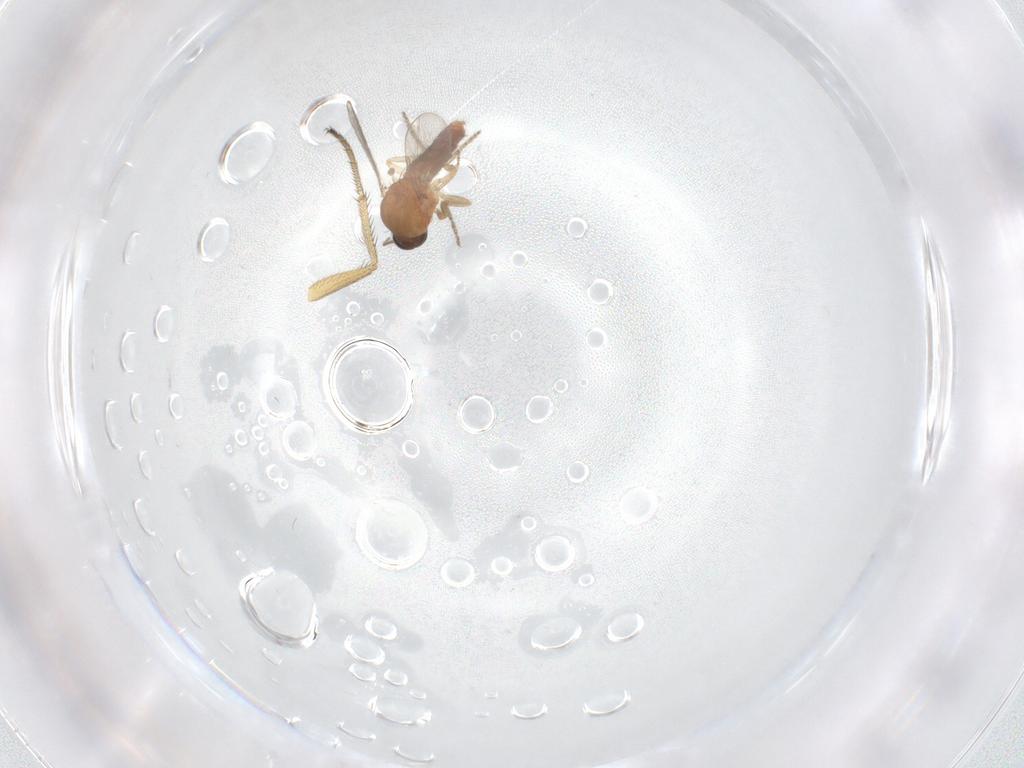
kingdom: Animalia
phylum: Arthropoda
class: Insecta
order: Diptera
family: Ceratopogonidae
